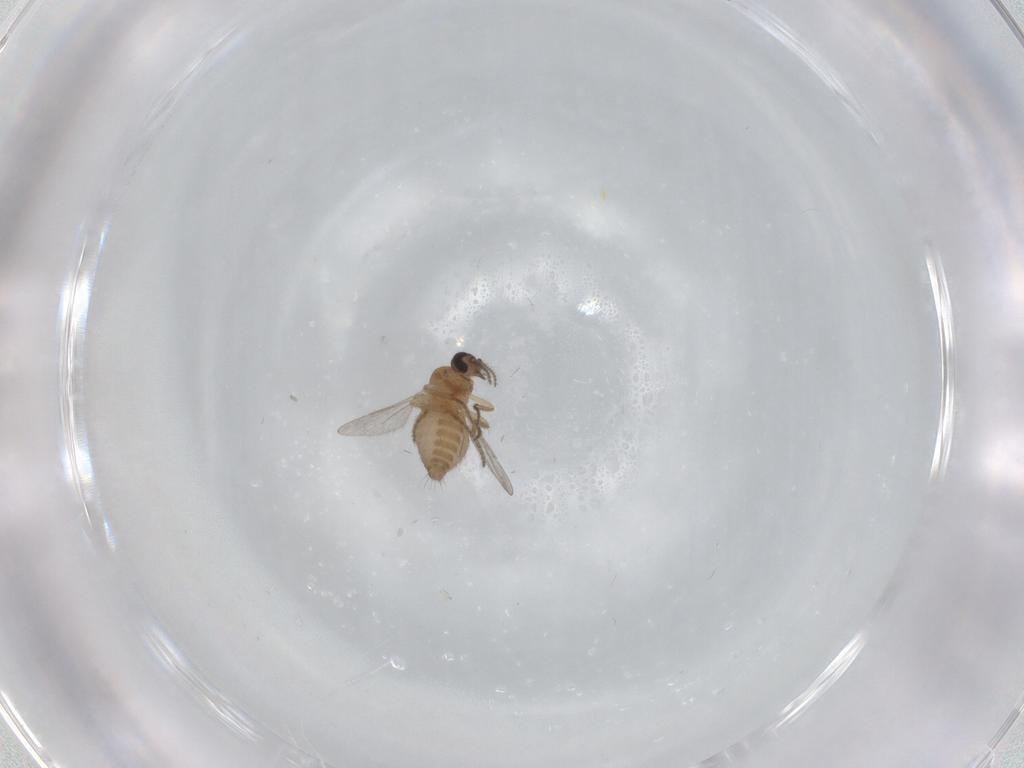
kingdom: Animalia
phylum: Arthropoda
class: Insecta
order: Diptera
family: Ceratopogonidae
